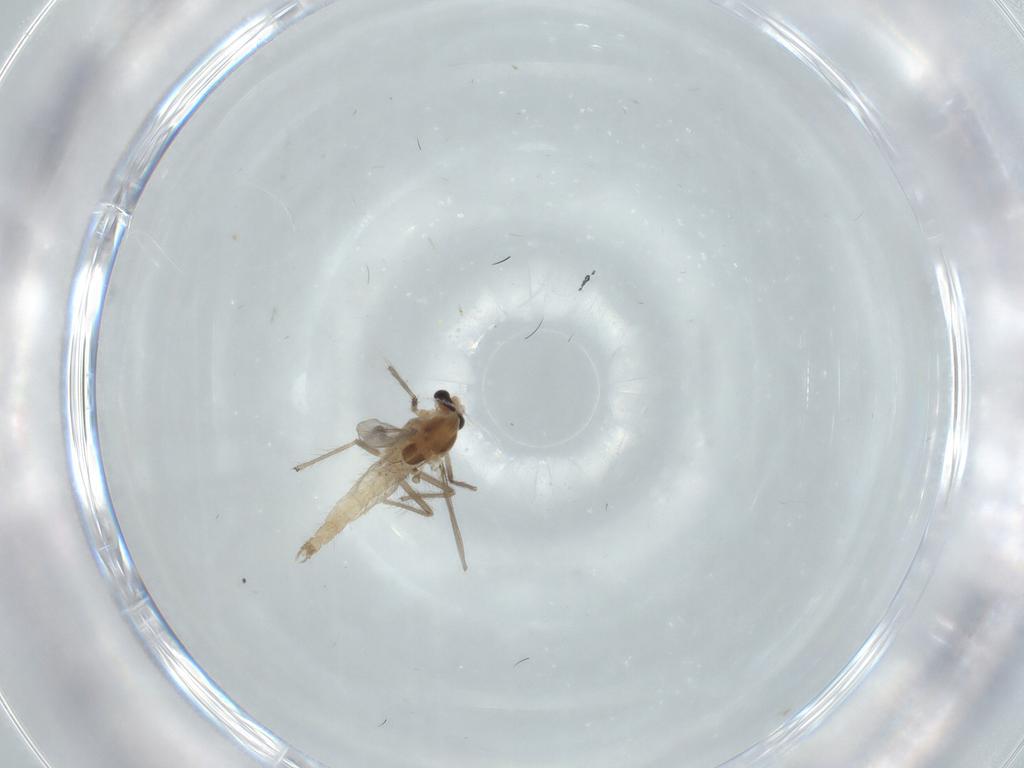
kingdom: Animalia
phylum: Arthropoda
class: Insecta
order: Diptera
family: Chironomidae
